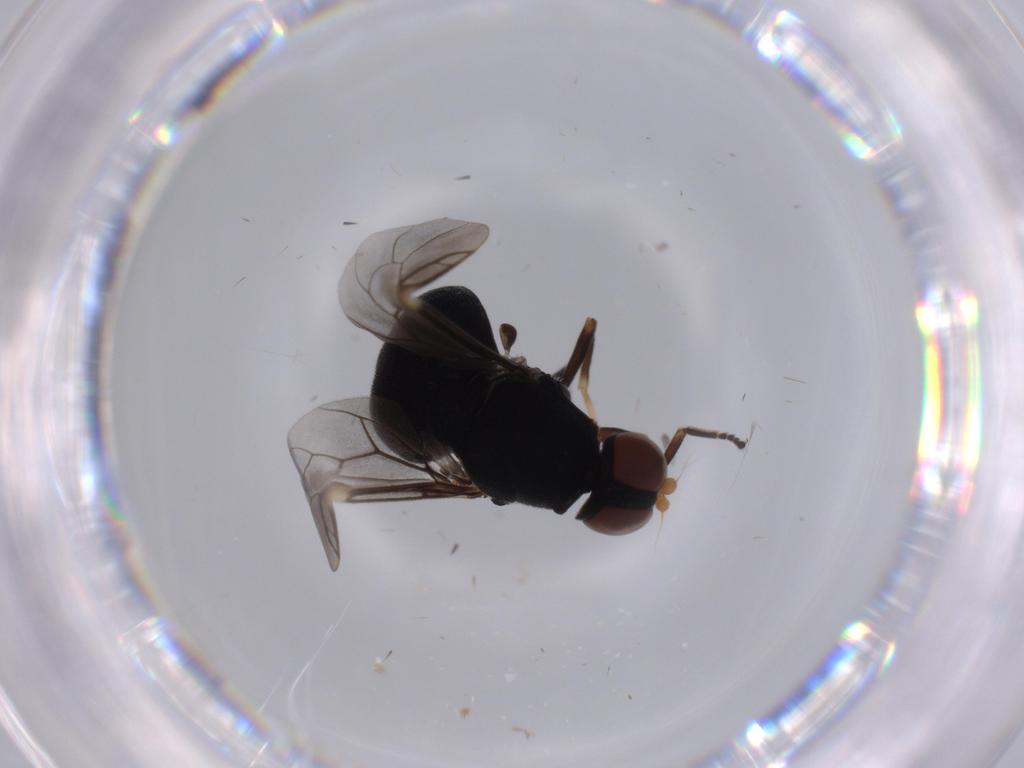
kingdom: Animalia
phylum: Arthropoda
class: Insecta
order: Diptera
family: Stratiomyidae
